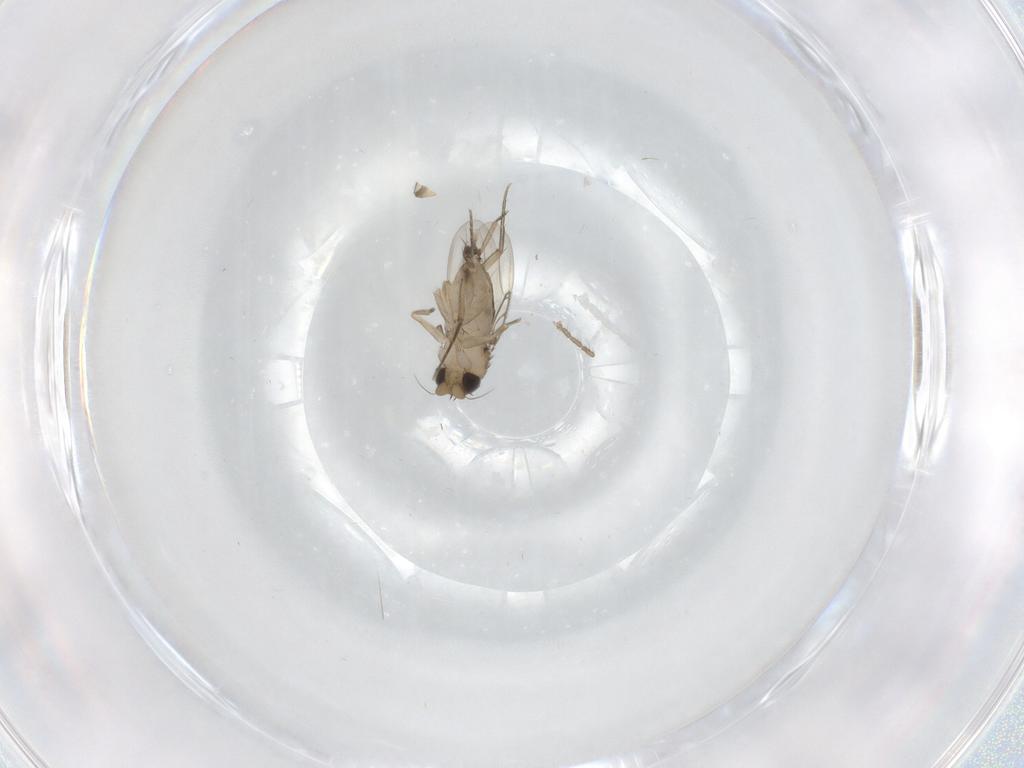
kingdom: Animalia
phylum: Arthropoda
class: Insecta
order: Diptera
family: Phoridae
